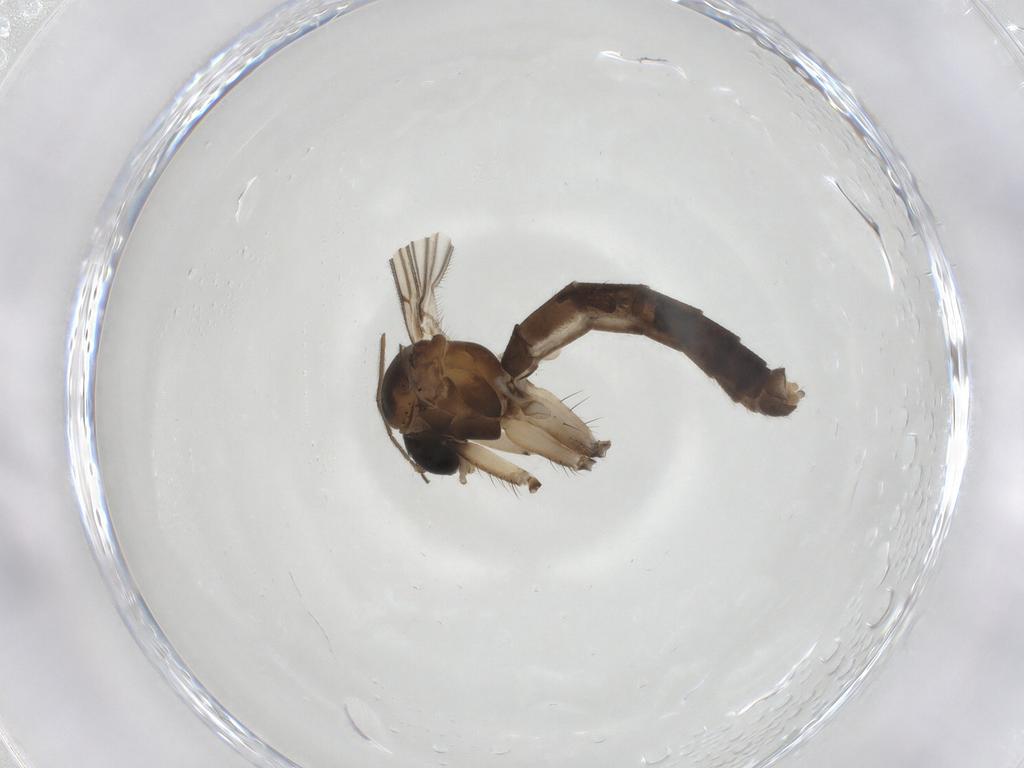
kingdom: Animalia
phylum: Arthropoda
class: Insecta
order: Diptera
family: Mycetophilidae
